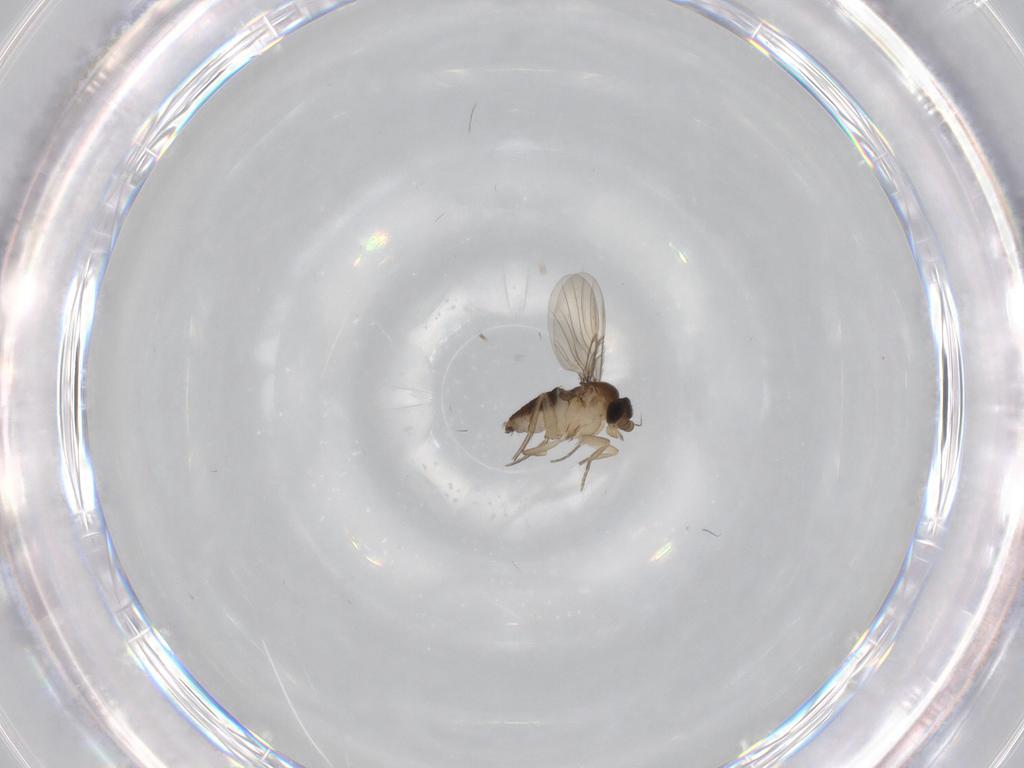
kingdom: Animalia
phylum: Arthropoda
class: Insecta
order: Diptera
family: Phoridae
